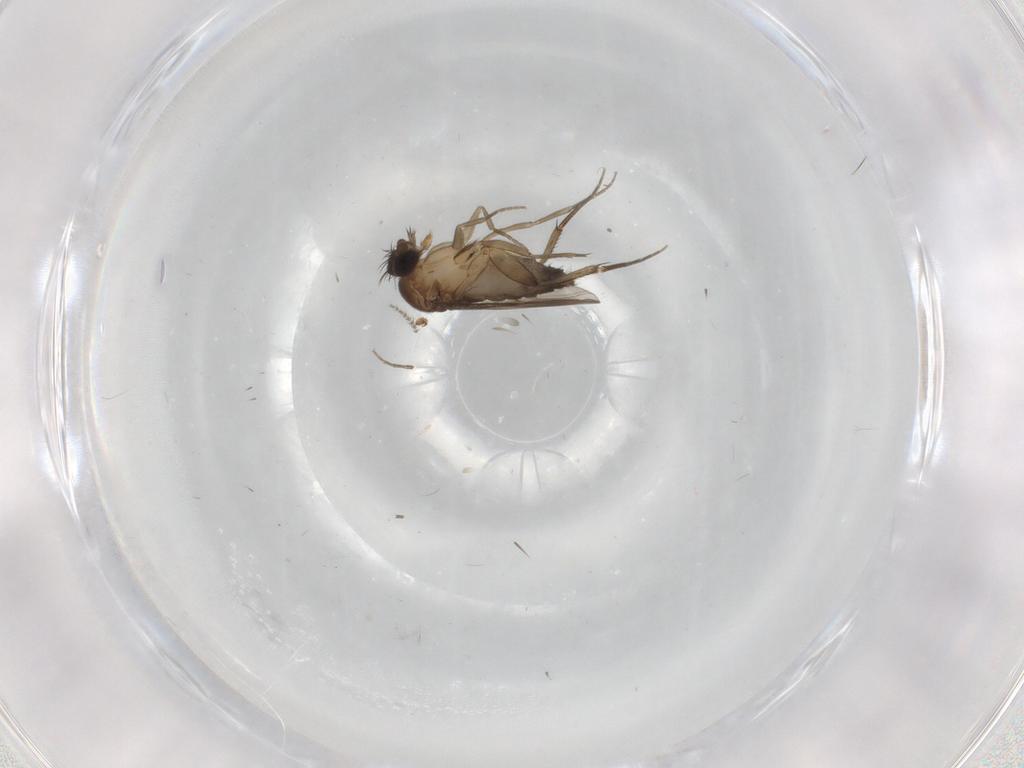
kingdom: Animalia
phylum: Arthropoda
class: Insecta
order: Diptera
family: Phoridae
